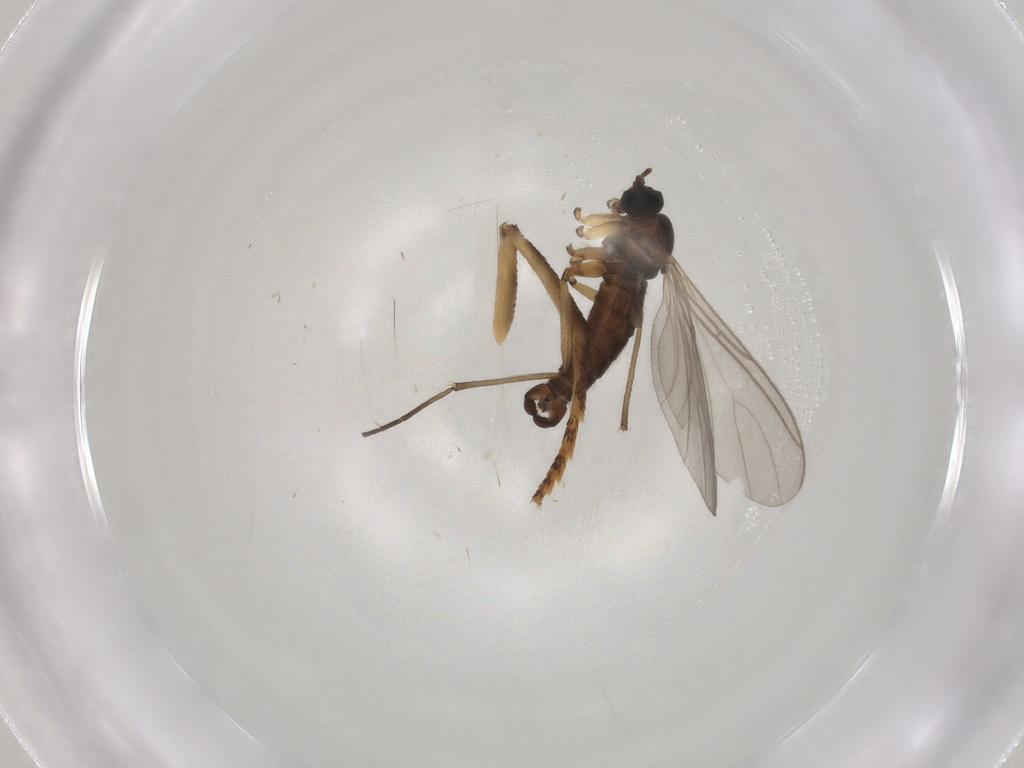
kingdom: Animalia
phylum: Arthropoda
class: Insecta
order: Diptera
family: Sciaridae
